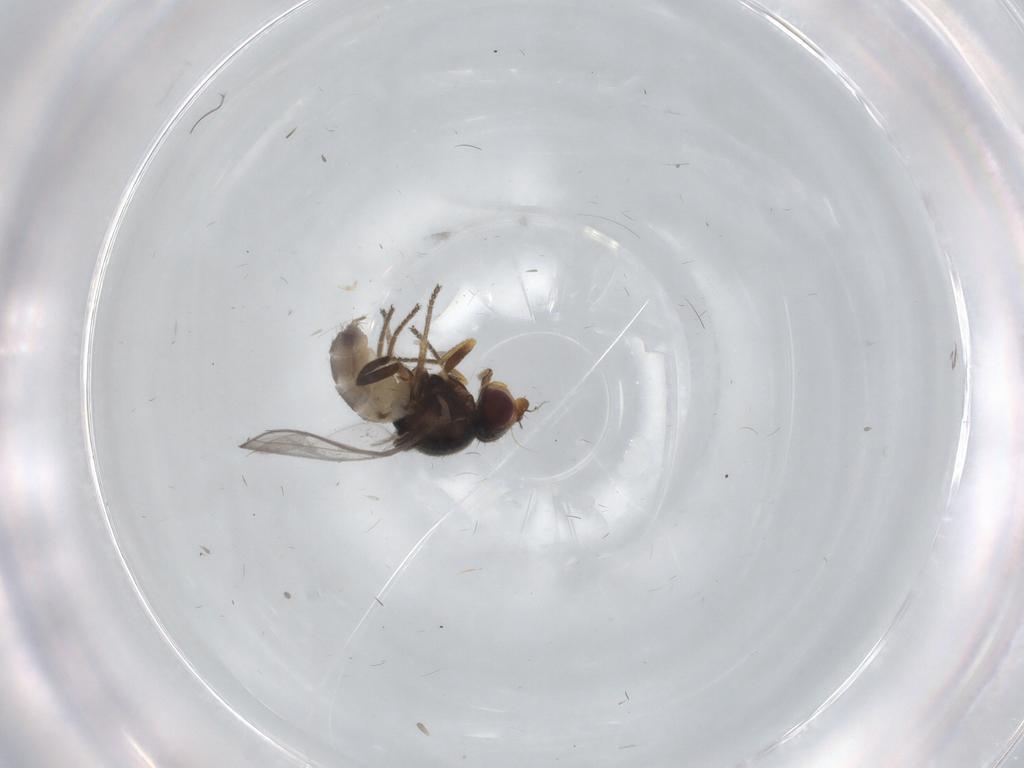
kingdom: Animalia
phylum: Arthropoda
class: Insecta
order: Diptera
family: Chloropidae
